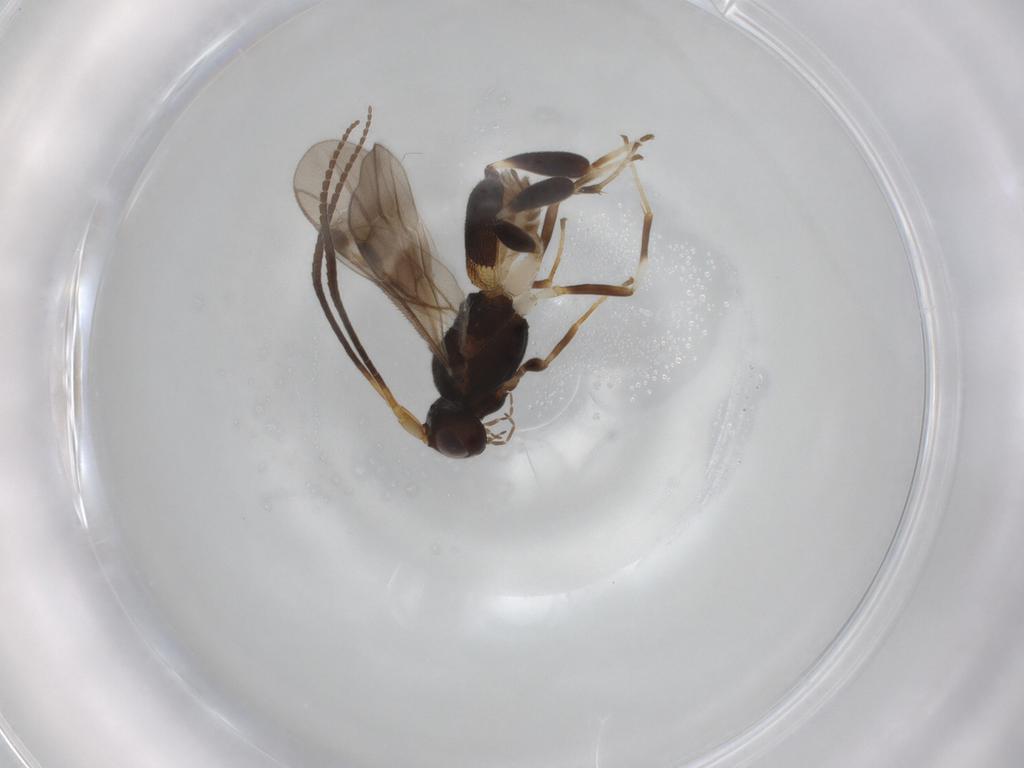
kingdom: Animalia
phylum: Arthropoda
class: Insecta
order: Hymenoptera
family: Braconidae
